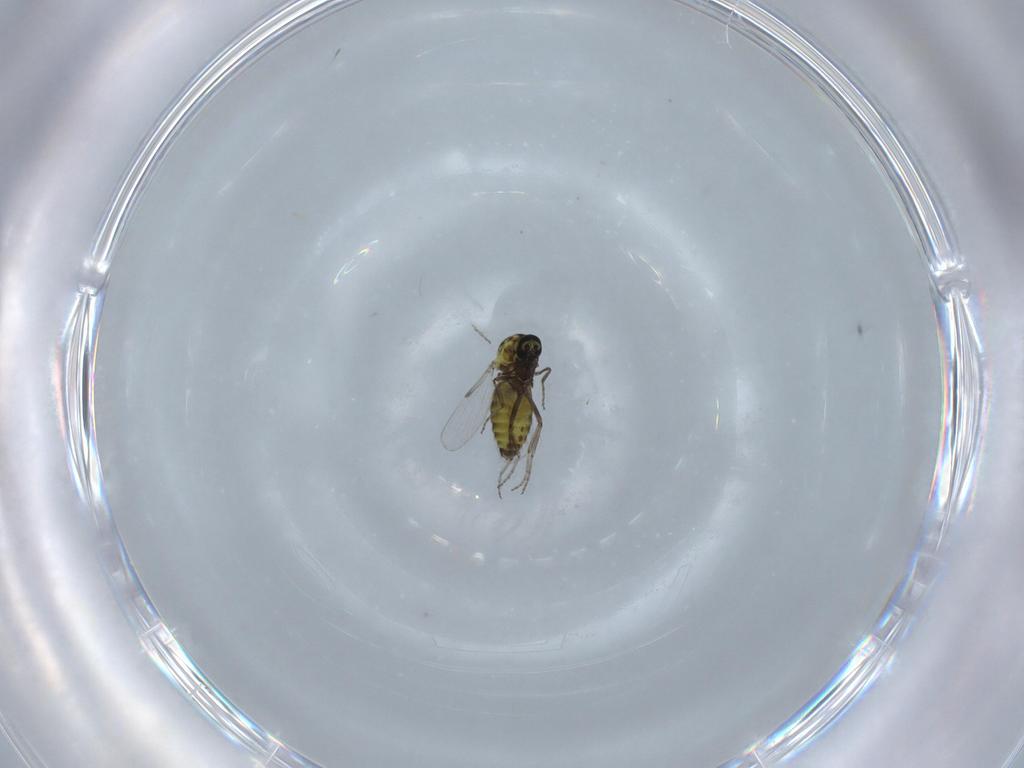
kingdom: Animalia
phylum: Arthropoda
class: Insecta
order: Diptera
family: Ceratopogonidae
